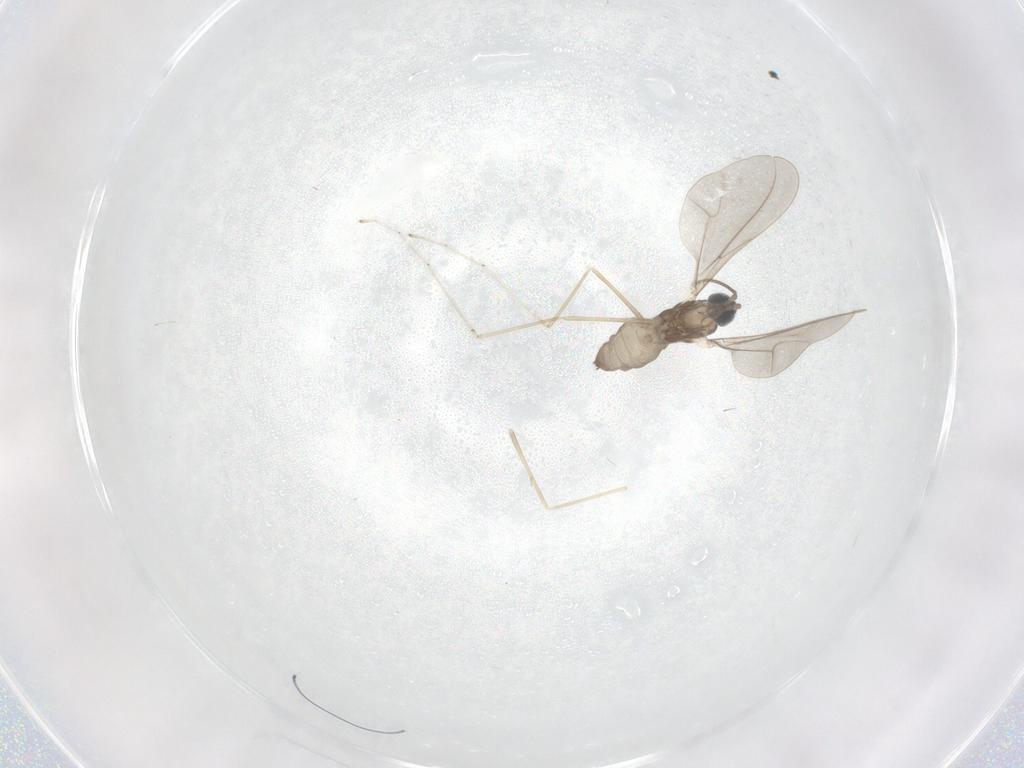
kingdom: Animalia
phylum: Arthropoda
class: Insecta
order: Diptera
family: Cecidomyiidae
